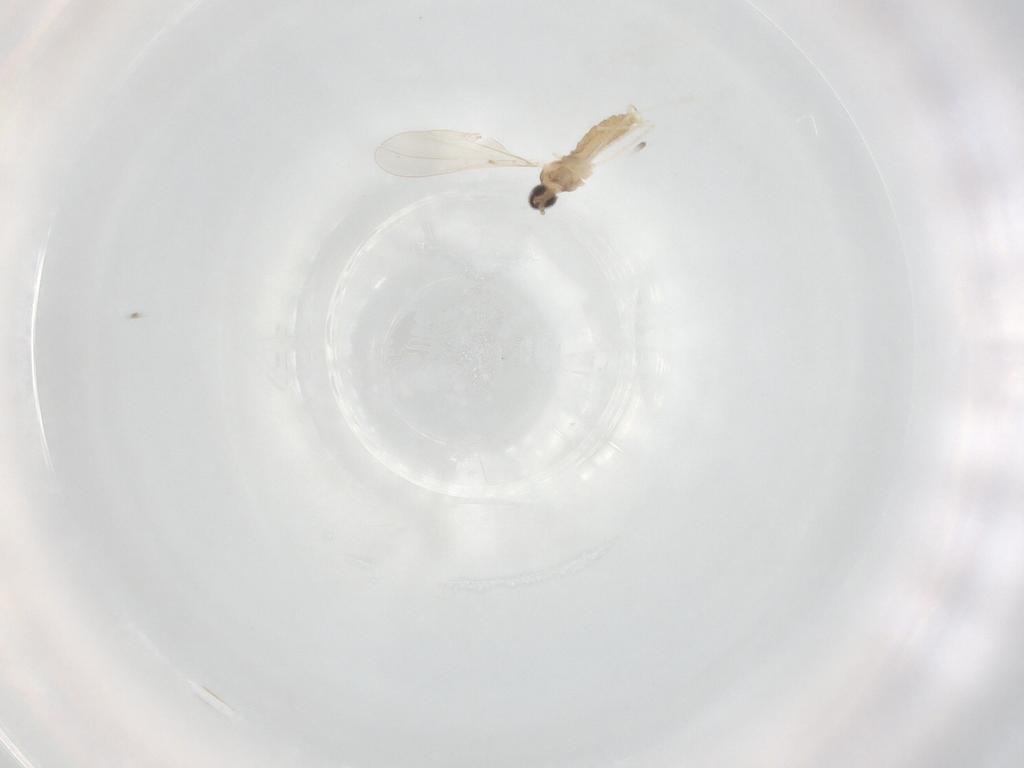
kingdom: Animalia
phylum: Arthropoda
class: Insecta
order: Diptera
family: Cecidomyiidae
